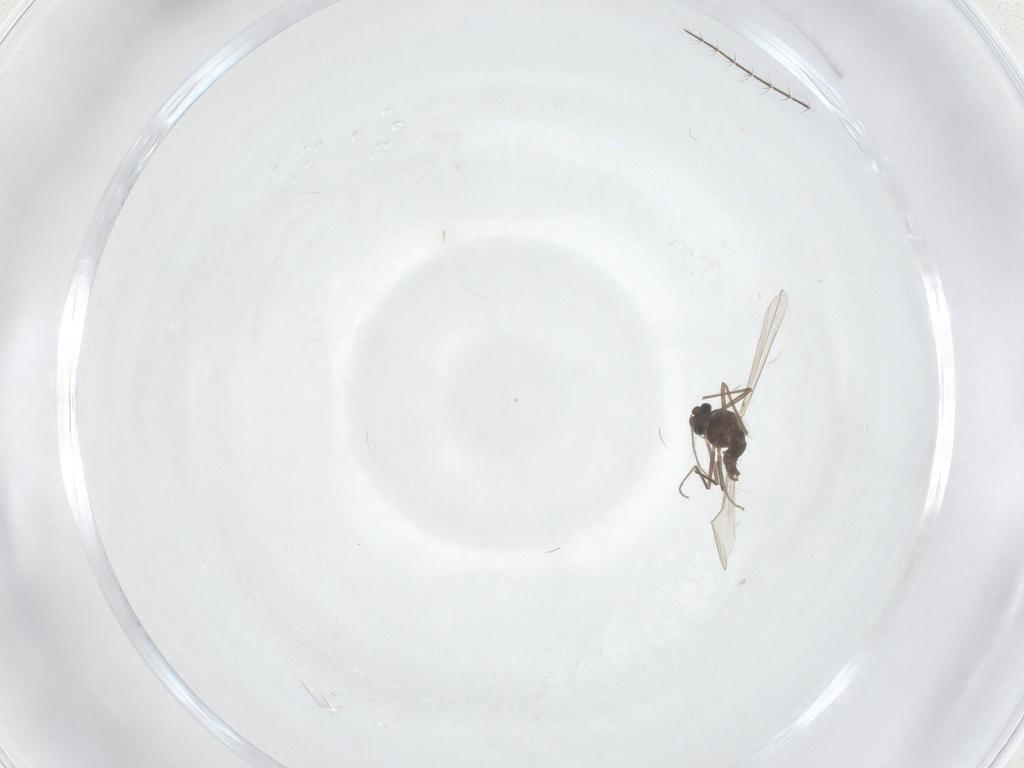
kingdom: Animalia
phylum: Arthropoda
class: Insecta
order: Diptera
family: Chironomidae
